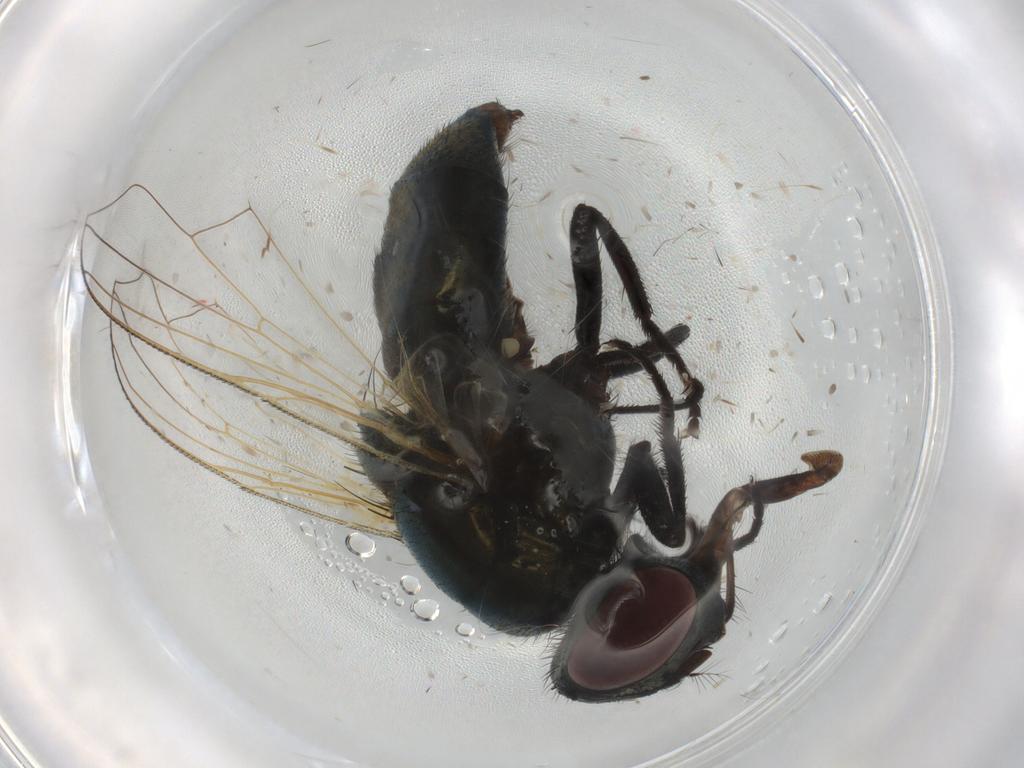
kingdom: Animalia
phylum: Arthropoda
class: Insecta
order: Diptera
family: Muscidae
